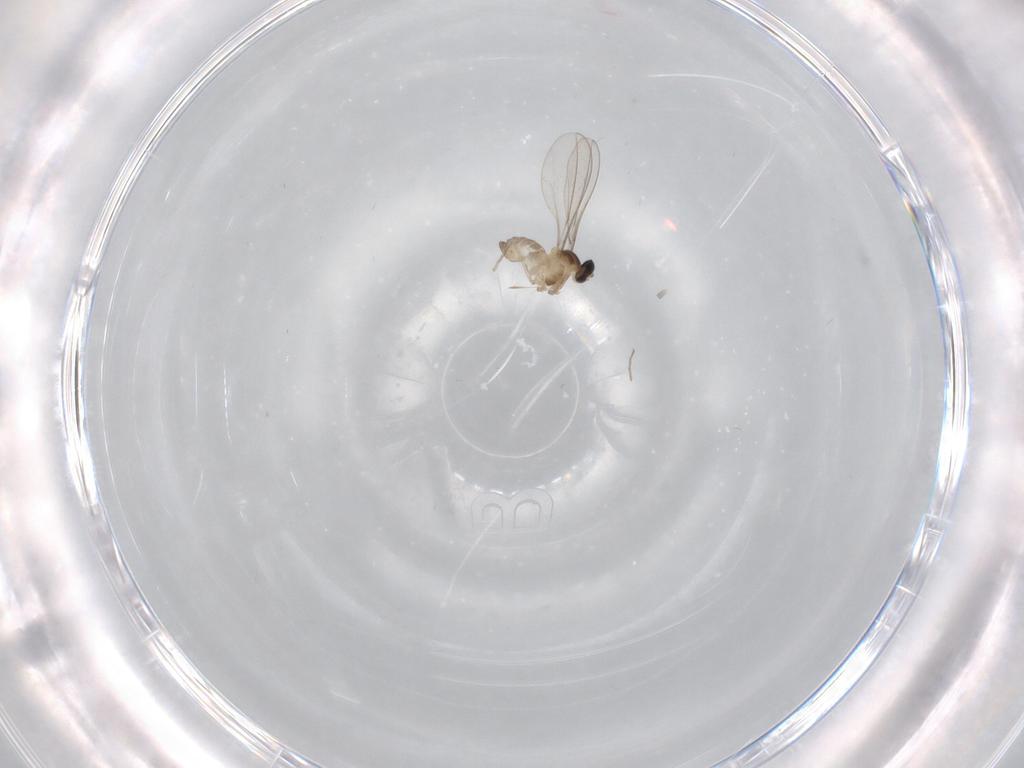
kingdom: Animalia
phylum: Arthropoda
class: Insecta
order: Diptera
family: Cecidomyiidae
